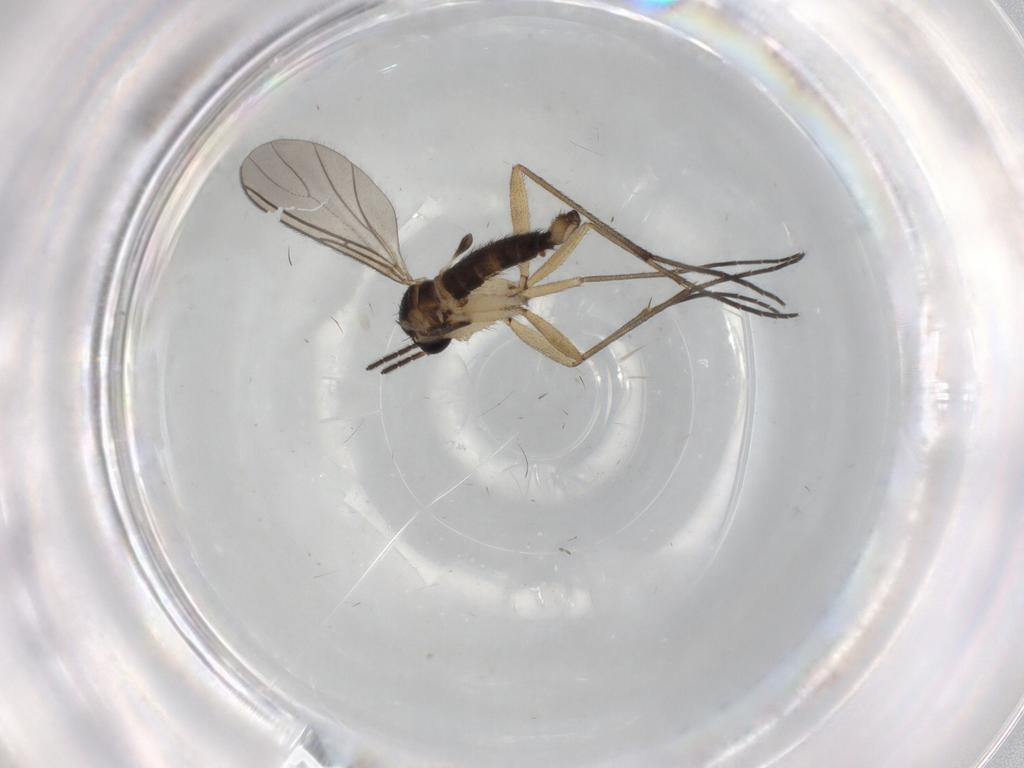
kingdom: Animalia
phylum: Arthropoda
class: Insecta
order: Diptera
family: Sciaridae
